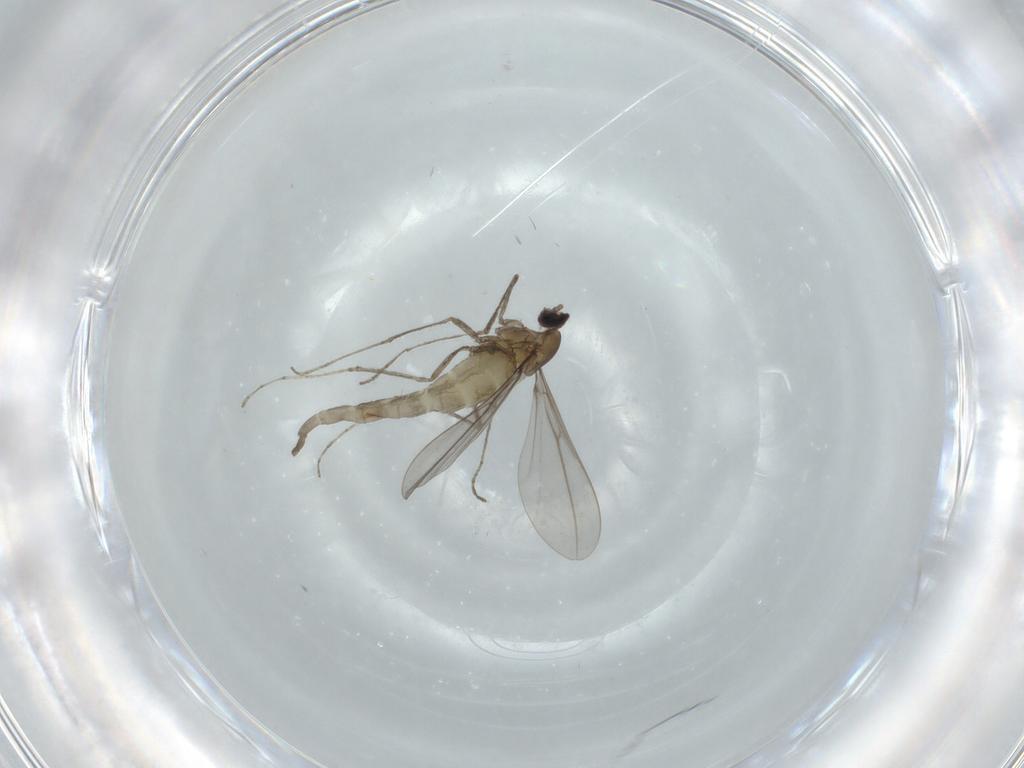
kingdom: Animalia
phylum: Arthropoda
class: Insecta
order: Diptera
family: Cecidomyiidae
